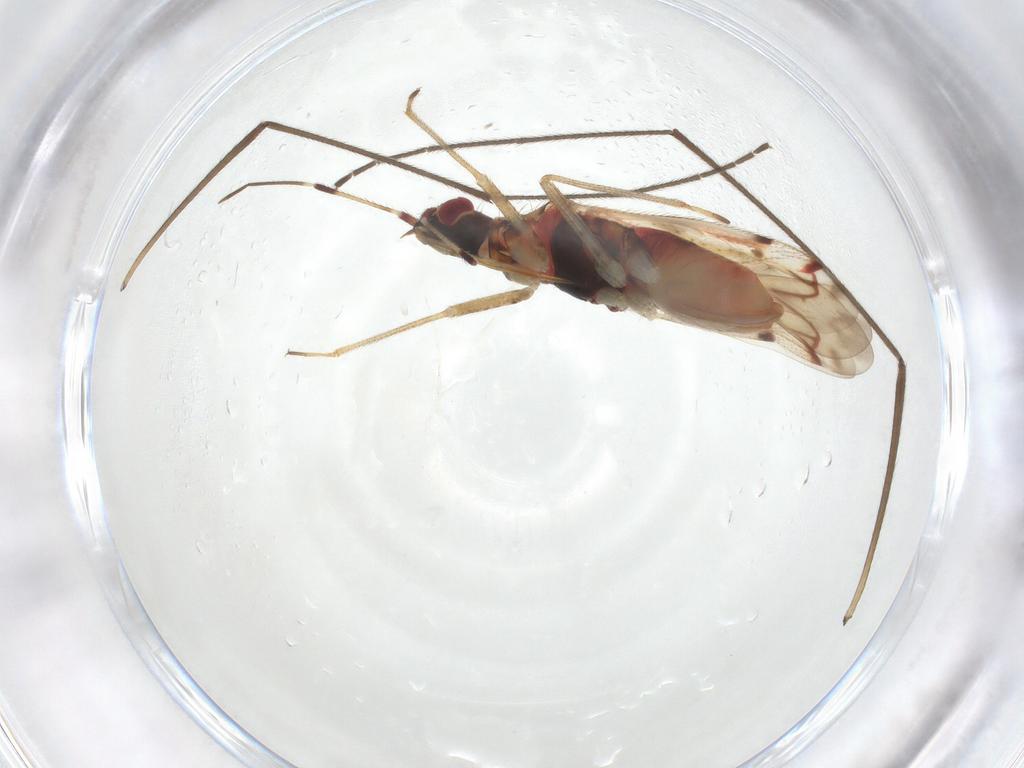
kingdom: Animalia
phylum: Arthropoda
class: Insecta
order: Hemiptera
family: Miridae
